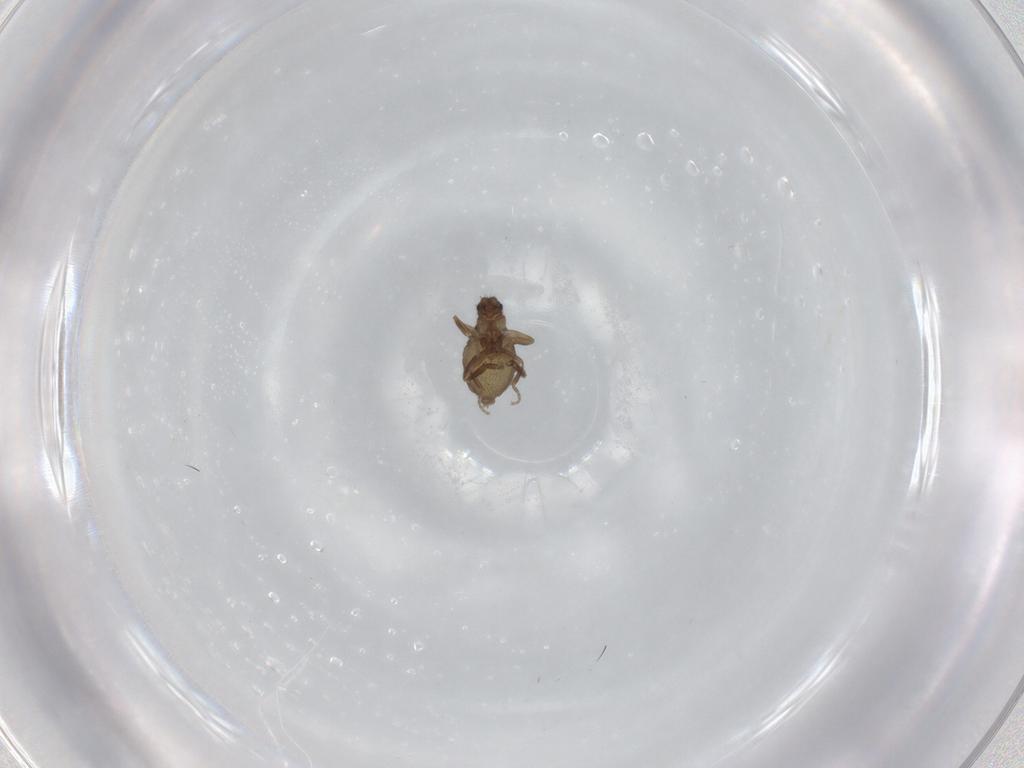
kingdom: Animalia
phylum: Arthropoda
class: Insecta
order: Diptera
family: Phoridae
